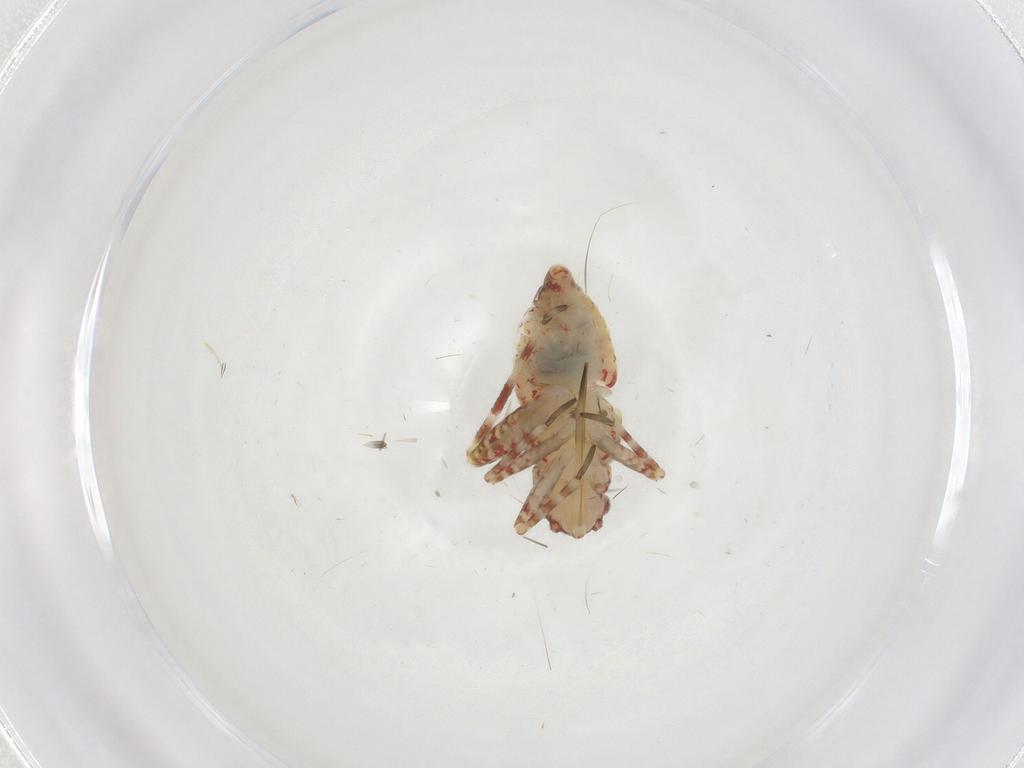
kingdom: Animalia
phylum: Arthropoda
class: Insecta
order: Hemiptera
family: Miridae
